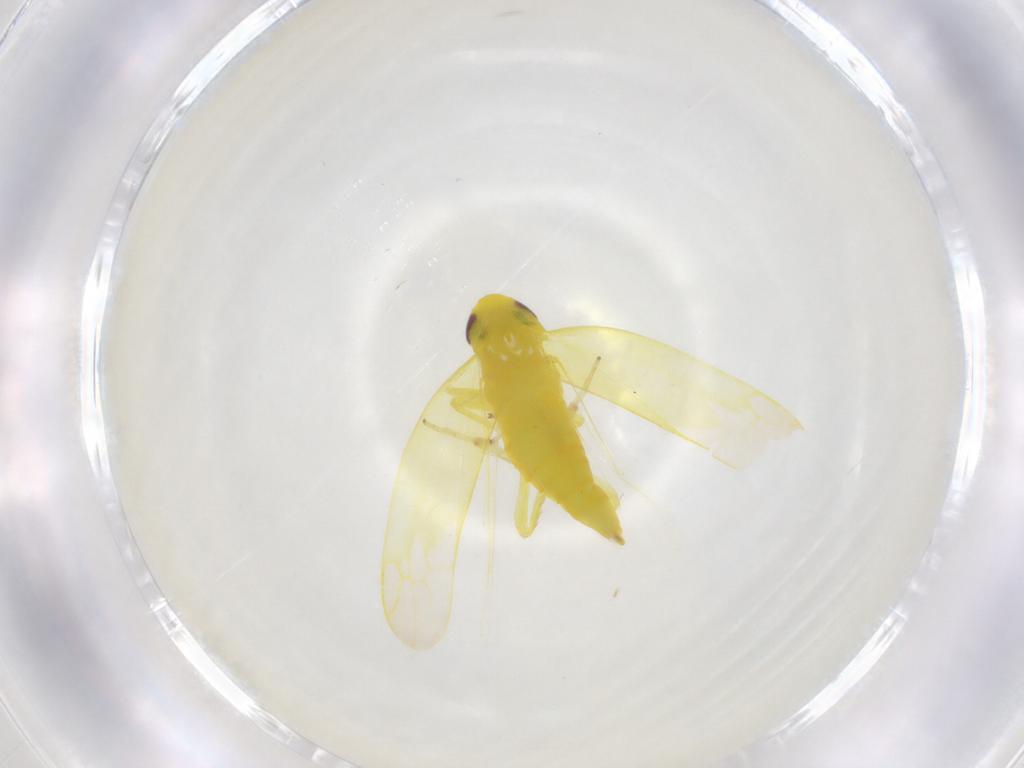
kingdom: Animalia
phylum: Arthropoda
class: Insecta
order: Hemiptera
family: Cicadellidae
